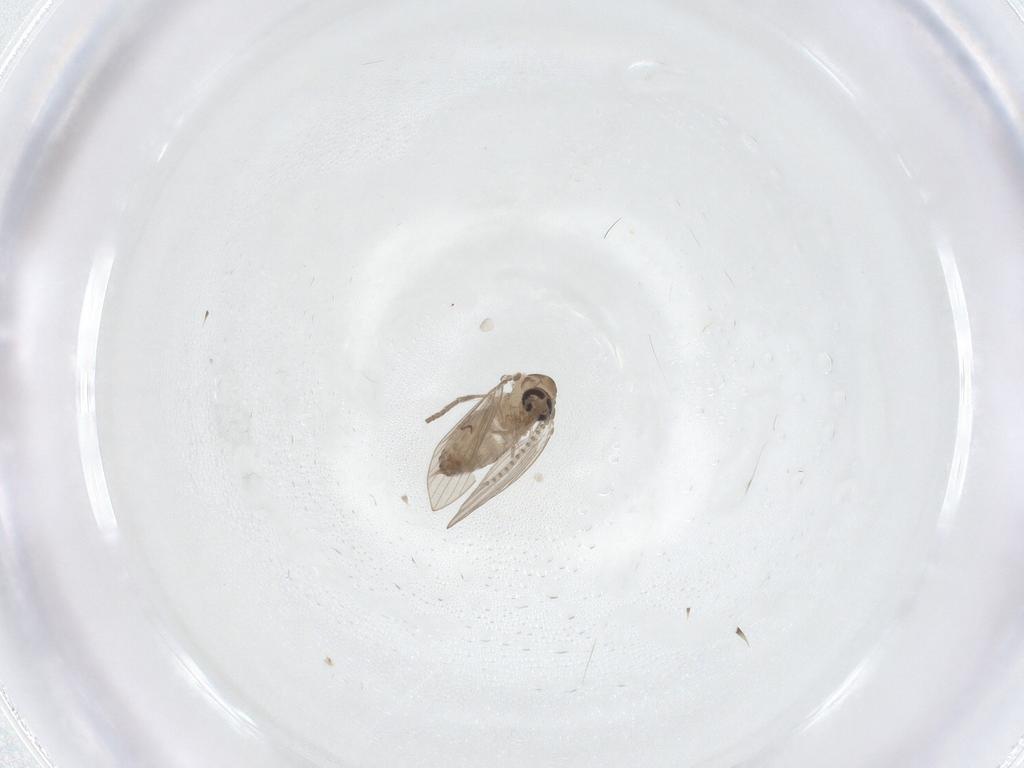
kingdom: Animalia
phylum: Arthropoda
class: Insecta
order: Diptera
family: Psychodidae
